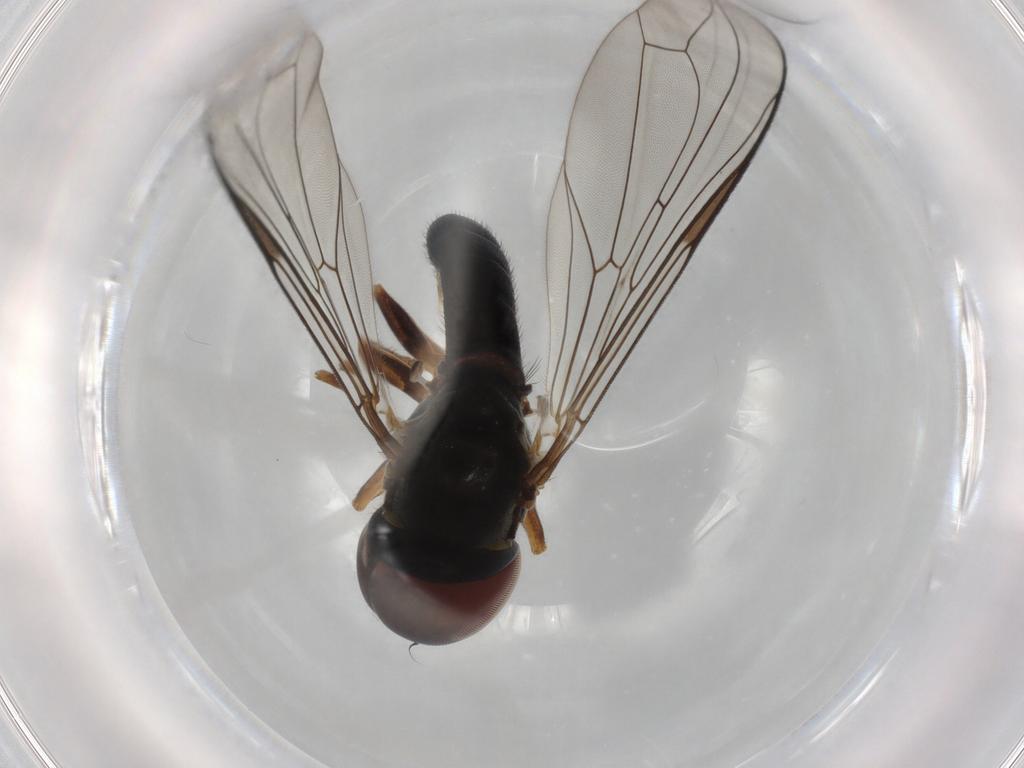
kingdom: Animalia
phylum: Arthropoda
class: Insecta
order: Diptera
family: Pipunculidae
